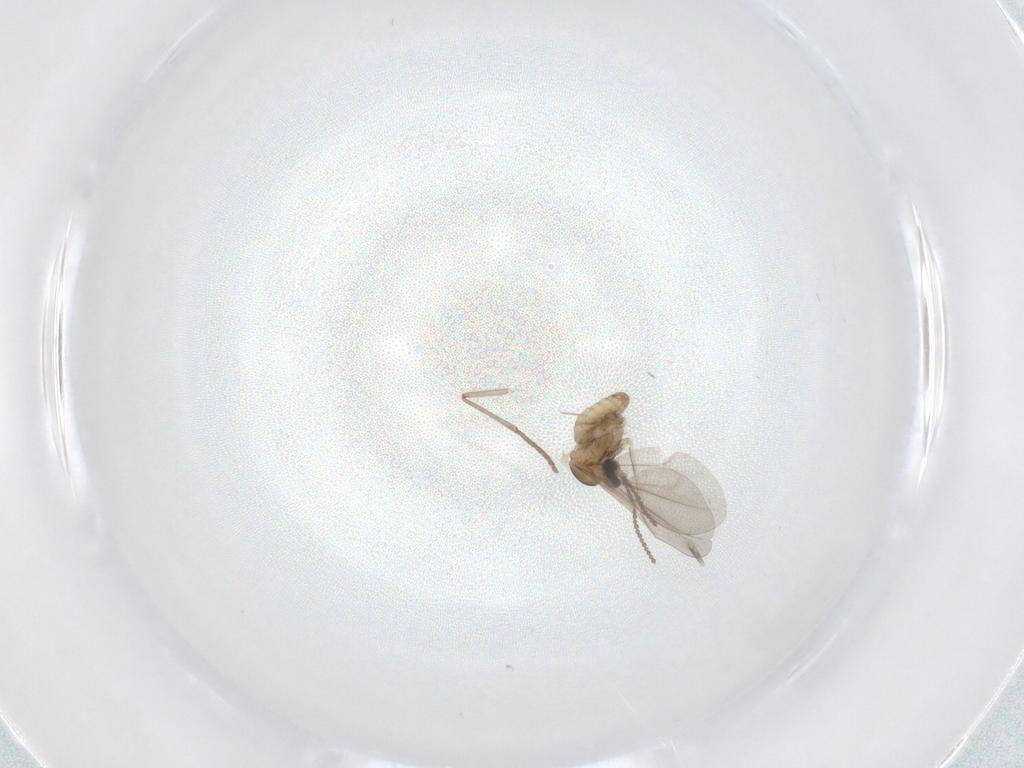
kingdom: Animalia
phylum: Arthropoda
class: Insecta
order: Diptera
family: Cecidomyiidae
